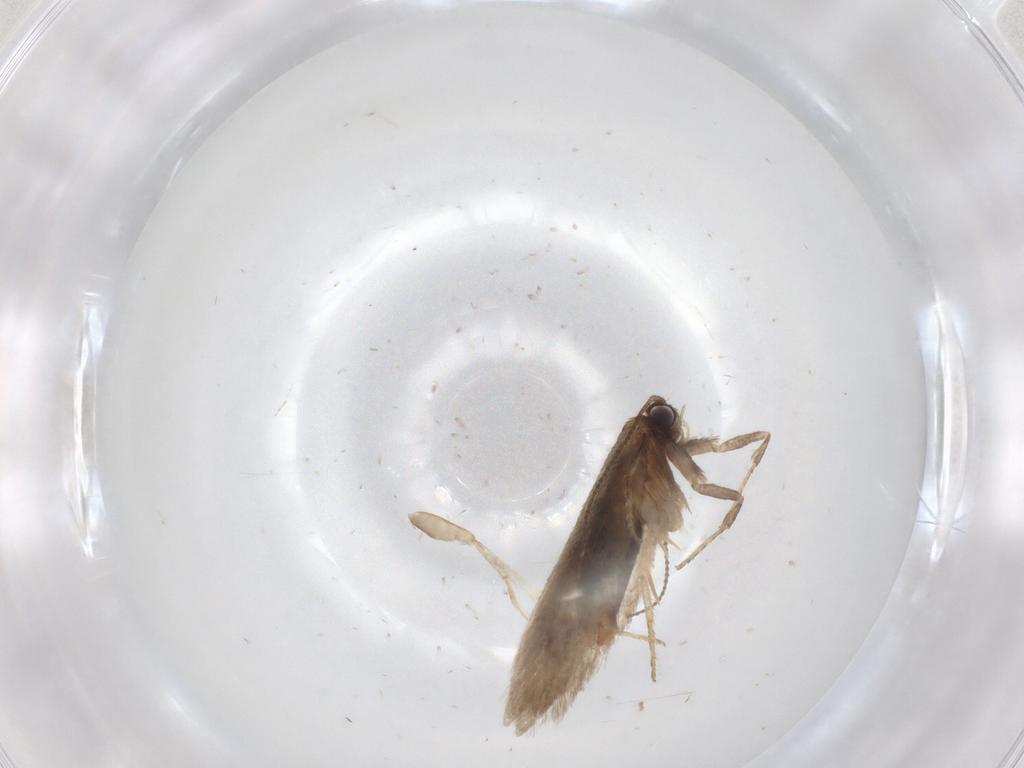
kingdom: Animalia
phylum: Arthropoda
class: Insecta
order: Lepidoptera
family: Nepticulidae
